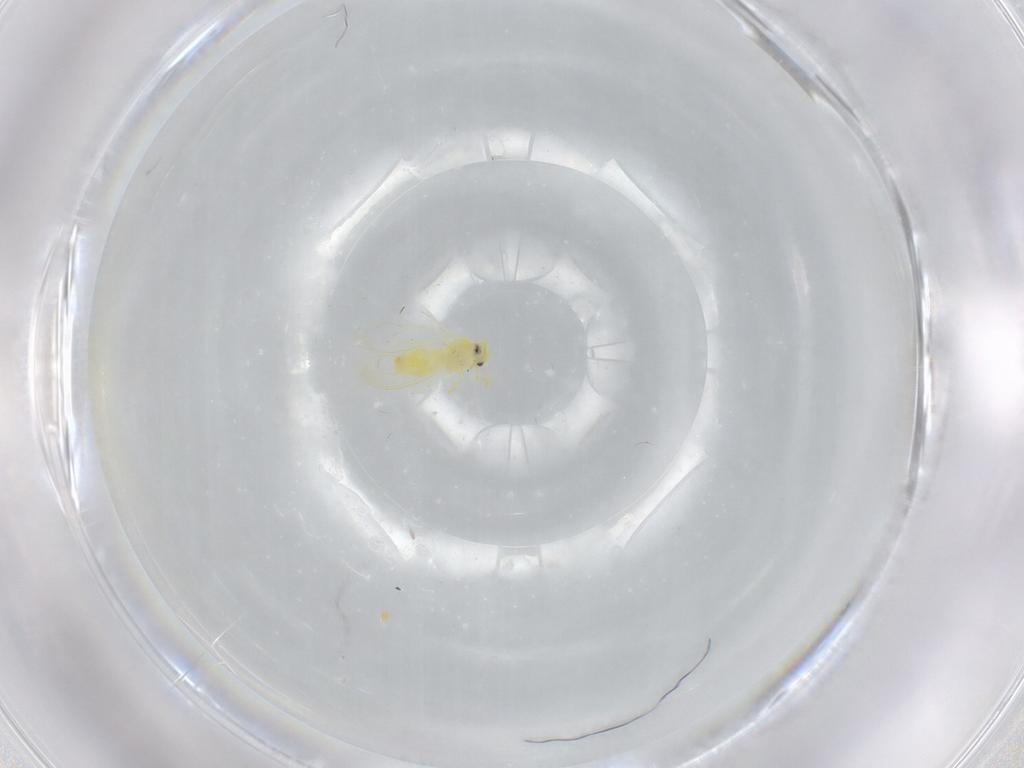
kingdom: Animalia
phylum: Arthropoda
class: Insecta
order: Hemiptera
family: Aleyrodidae
